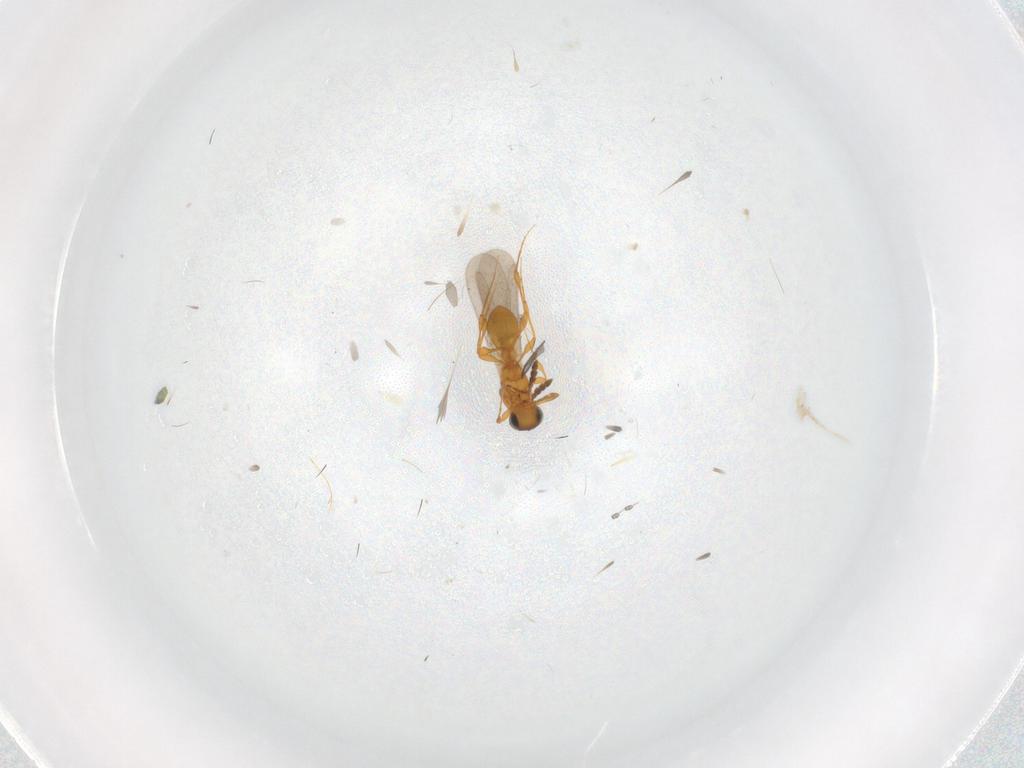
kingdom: Animalia
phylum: Arthropoda
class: Insecta
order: Hymenoptera
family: Platygastridae
